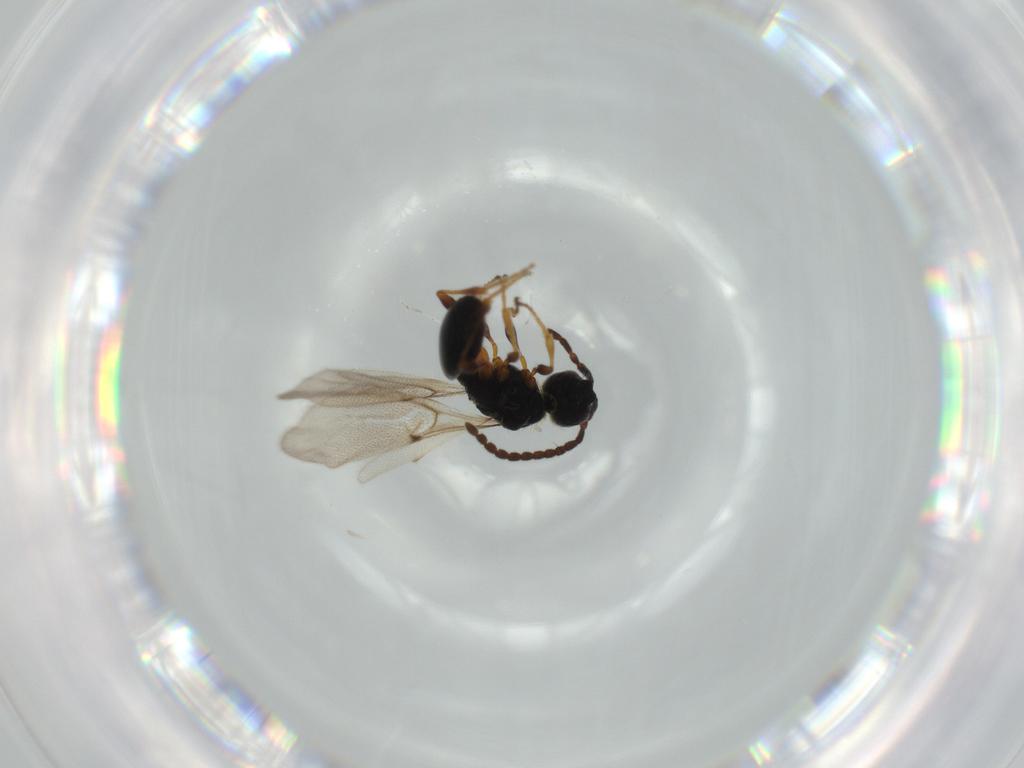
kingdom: Animalia
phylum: Arthropoda
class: Insecta
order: Hymenoptera
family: Diapriidae
